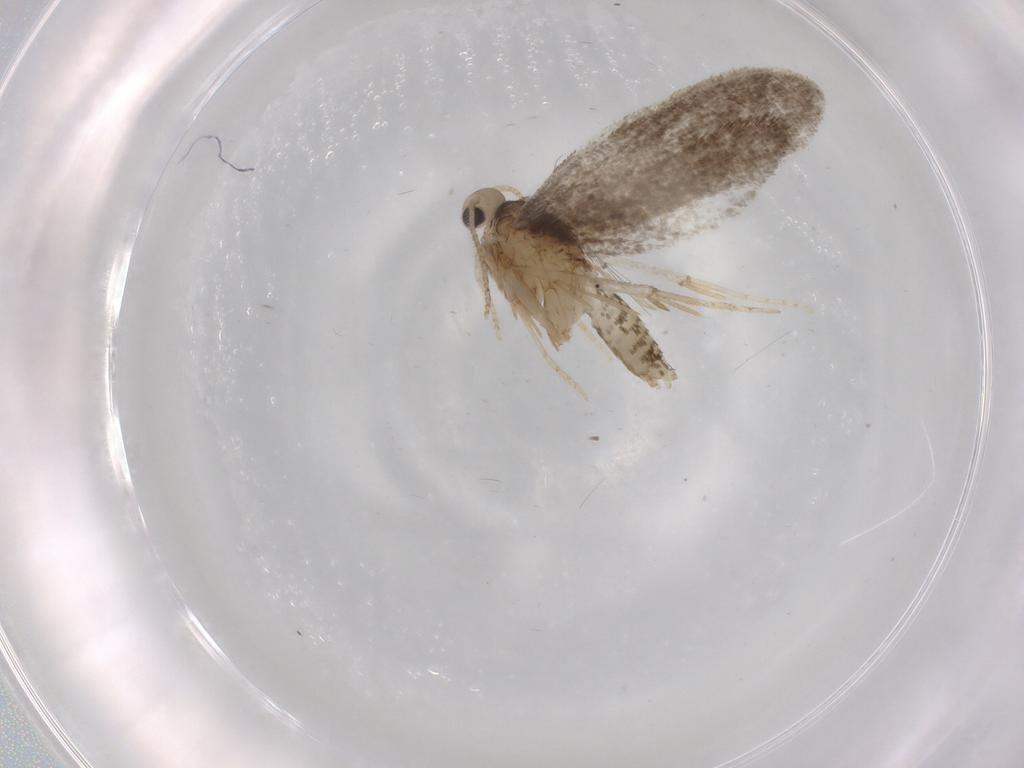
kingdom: Animalia
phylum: Arthropoda
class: Insecta
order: Lepidoptera
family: Psychidae
